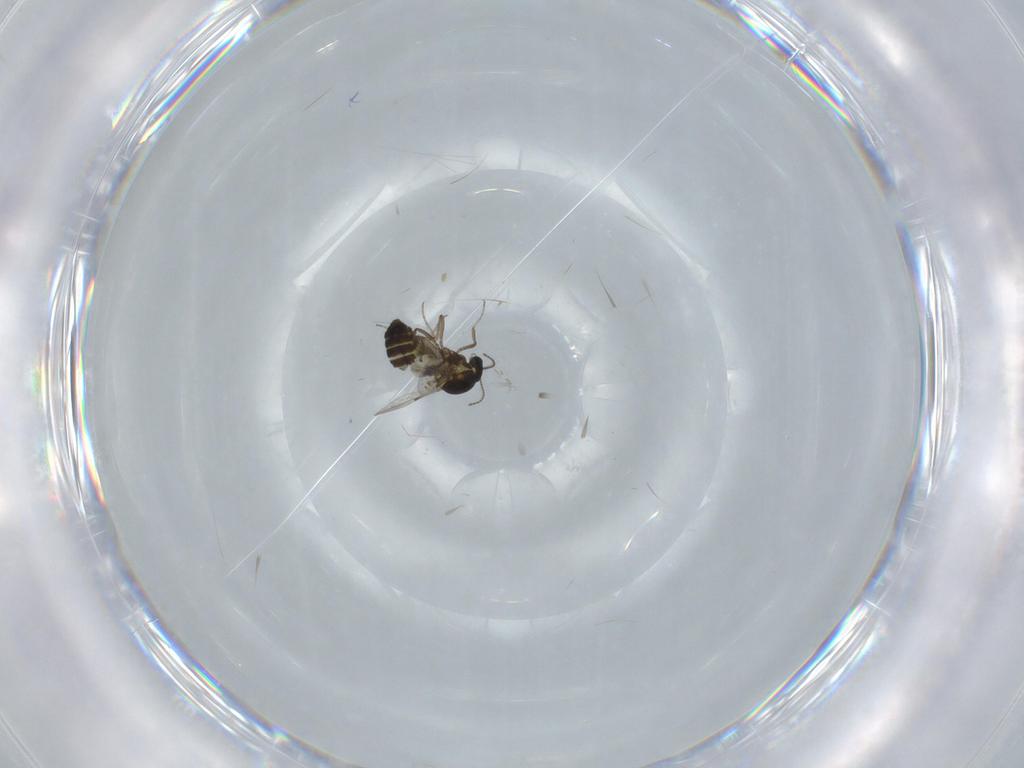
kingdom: Animalia
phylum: Arthropoda
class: Insecta
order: Diptera
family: Ceratopogonidae
